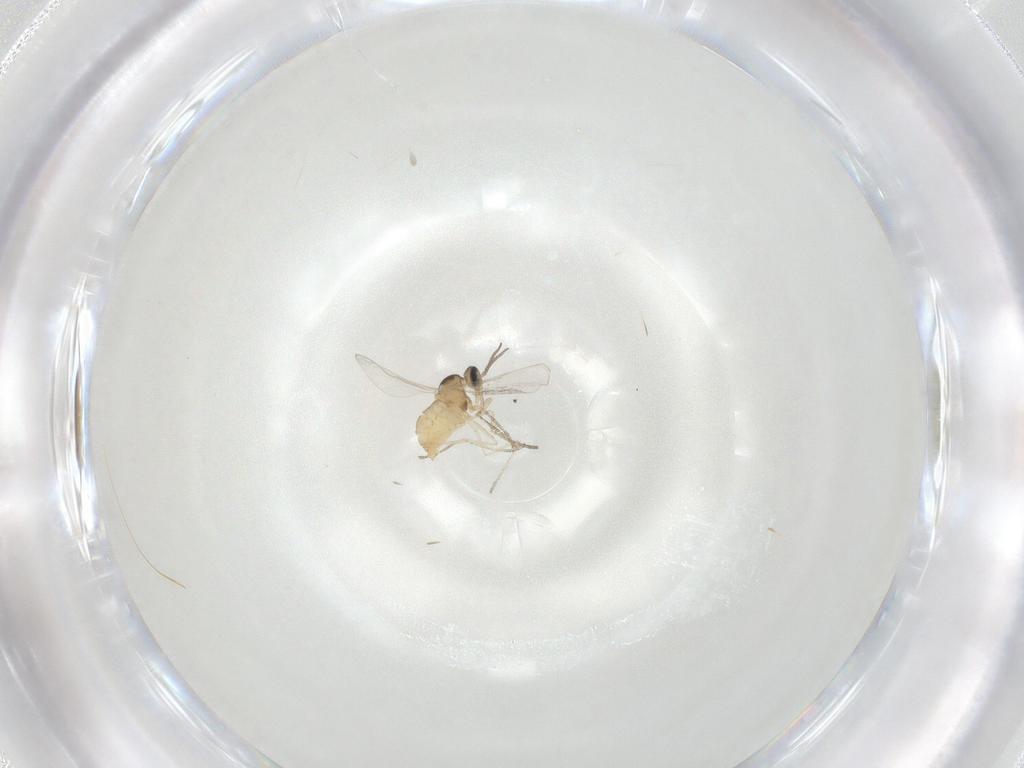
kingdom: Animalia
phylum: Arthropoda
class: Insecta
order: Diptera
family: Cecidomyiidae
